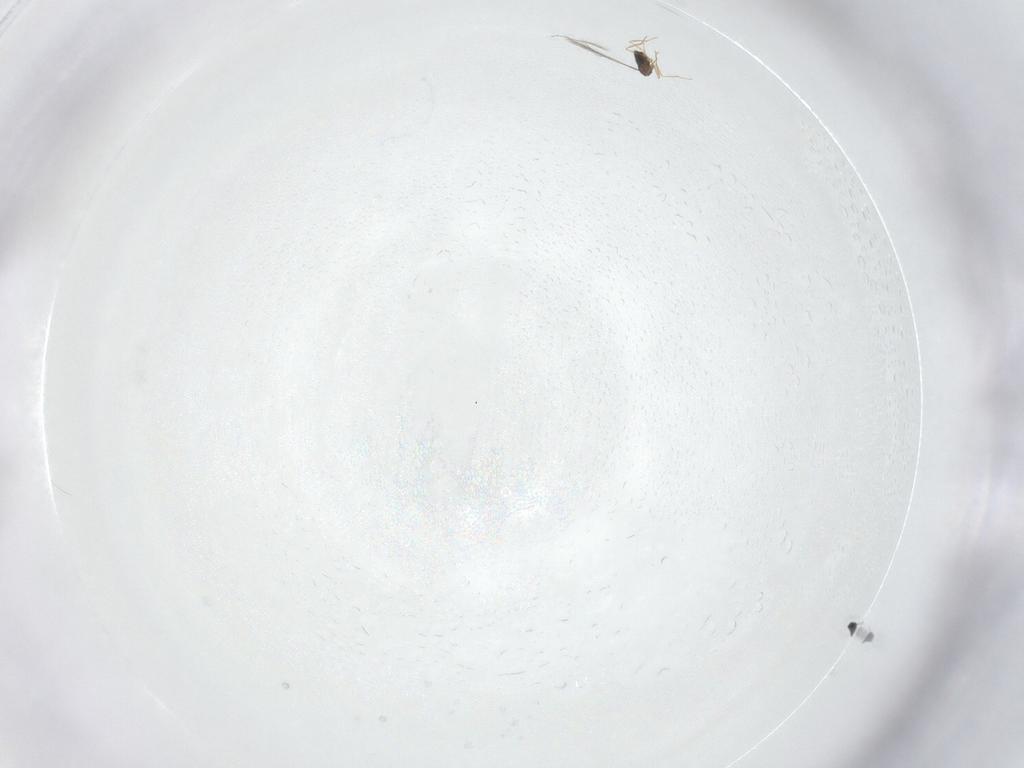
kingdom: Animalia
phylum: Arthropoda
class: Insecta
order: Hymenoptera
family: Mymaridae
